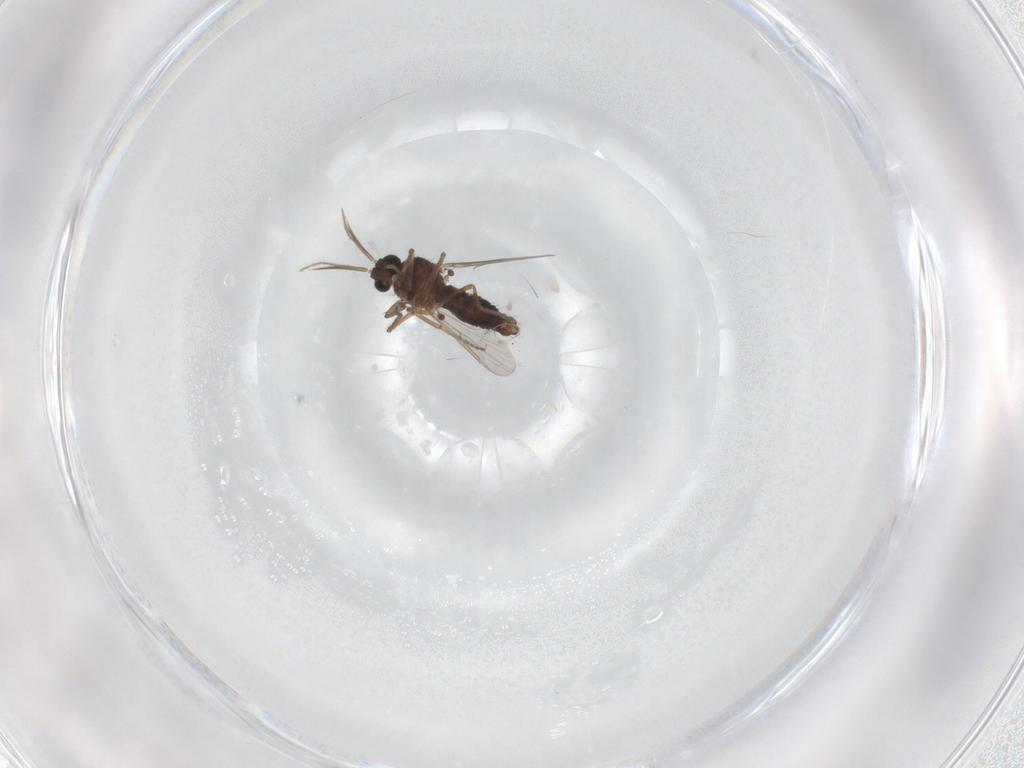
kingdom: Animalia
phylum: Arthropoda
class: Insecta
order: Diptera
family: Ceratopogonidae
